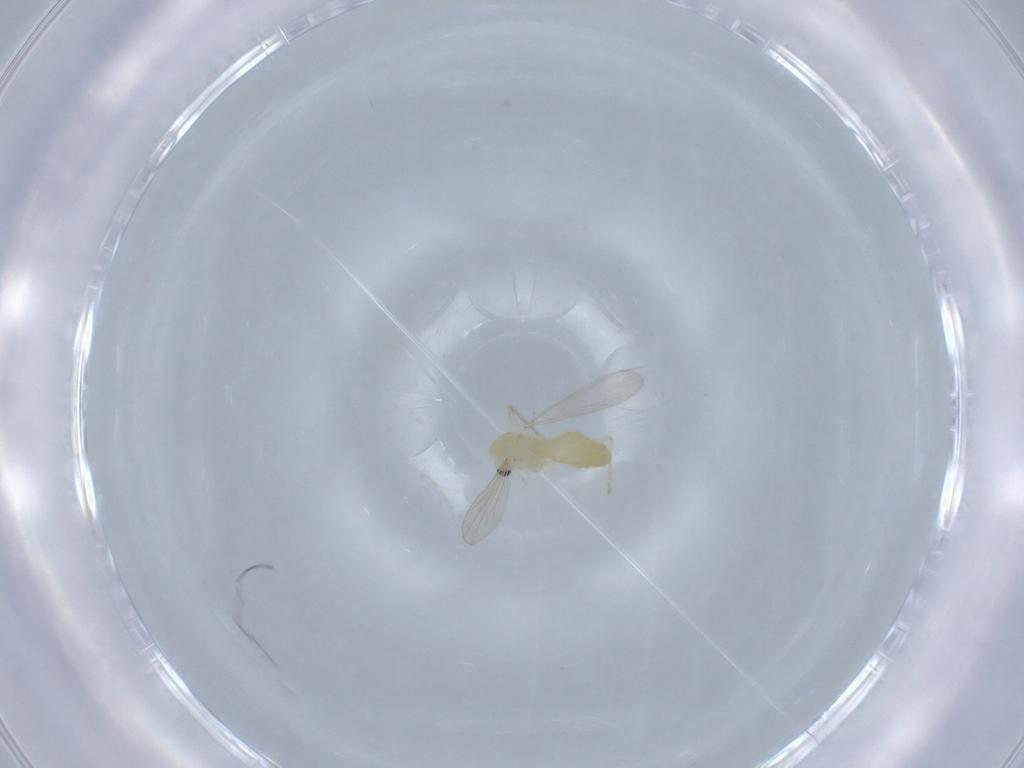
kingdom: Animalia
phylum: Arthropoda
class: Insecta
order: Diptera
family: Chironomidae
